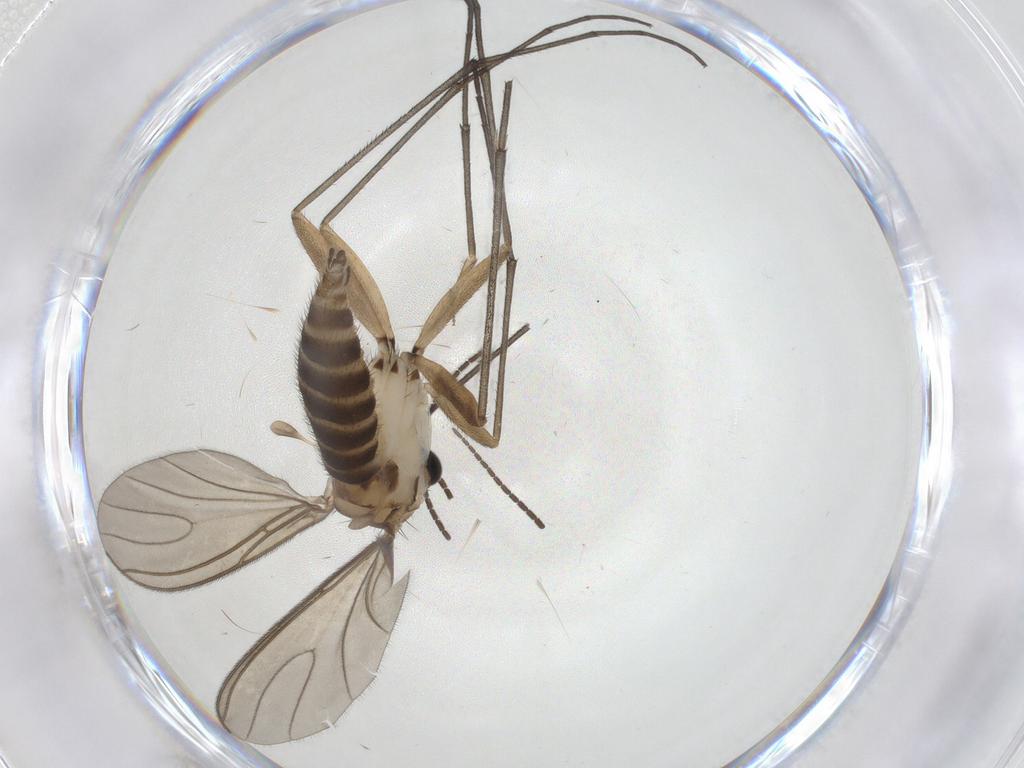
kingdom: Animalia
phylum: Arthropoda
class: Insecta
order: Diptera
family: Sciaridae
